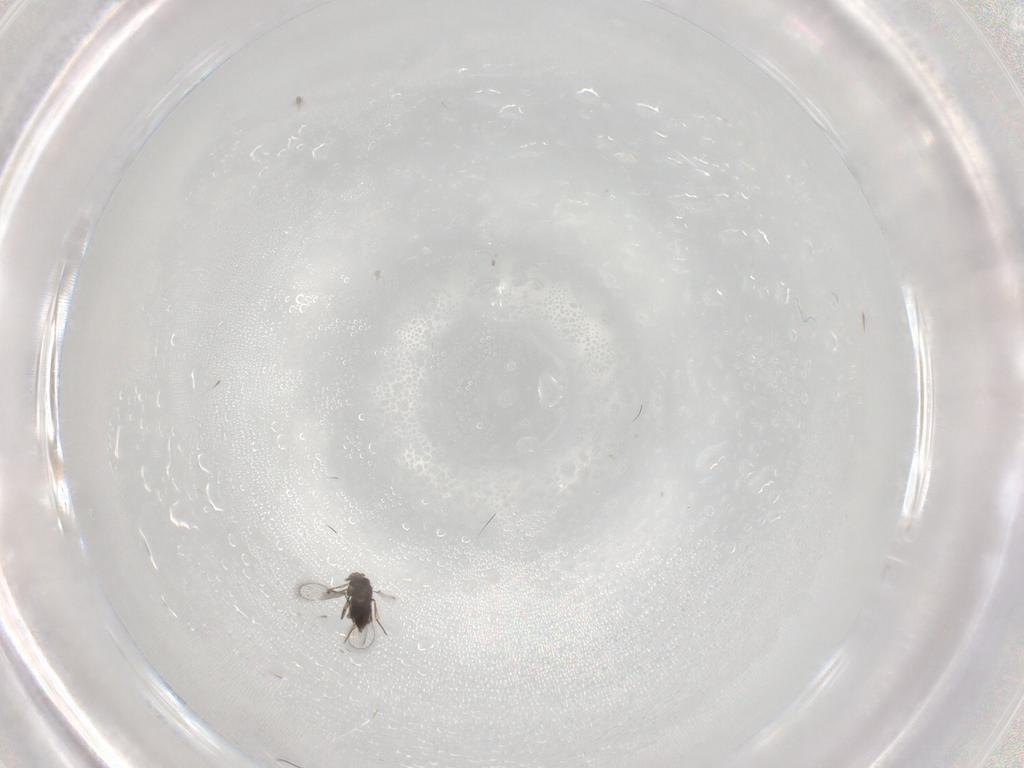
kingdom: Animalia
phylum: Arthropoda
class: Insecta
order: Hymenoptera
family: Trichogrammatidae
